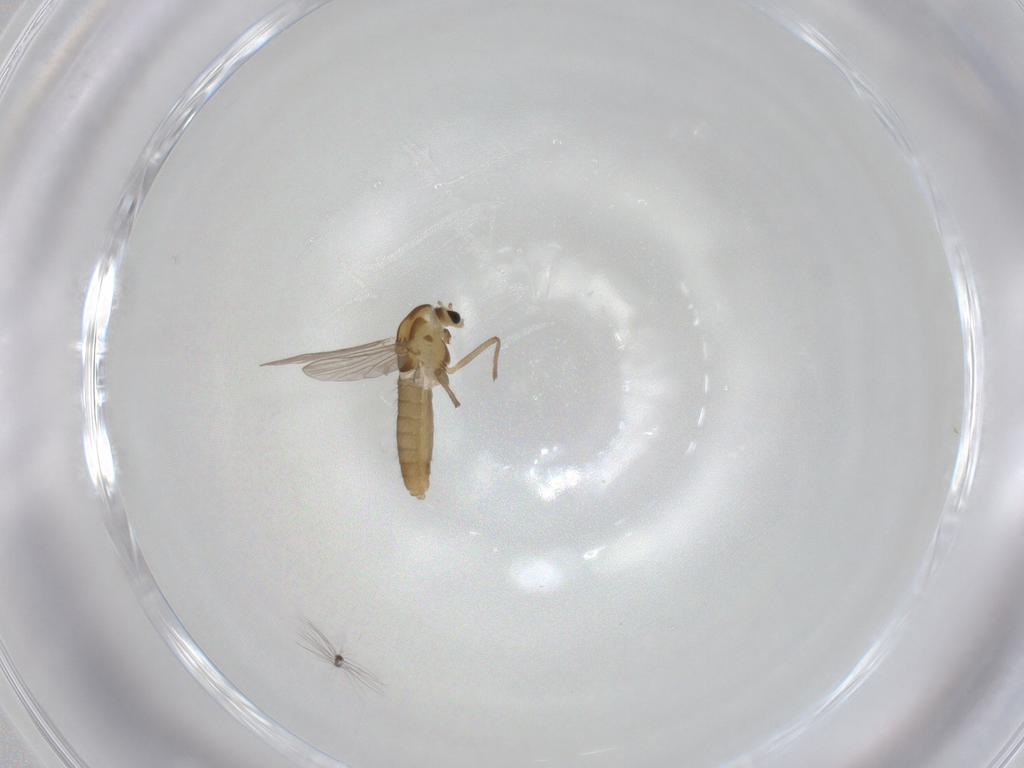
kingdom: Animalia
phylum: Arthropoda
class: Insecta
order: Diptera
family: Chironomidae
